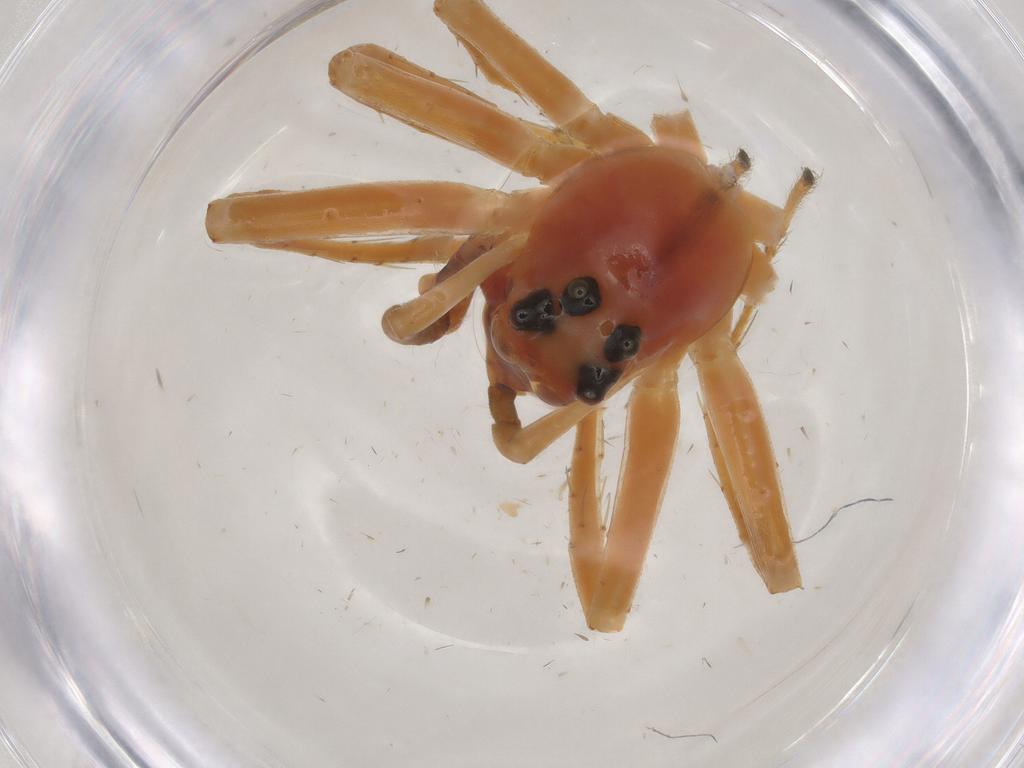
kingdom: Animalia
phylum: Arthropoda
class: Arachnida
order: Araneae
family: Salticidae
